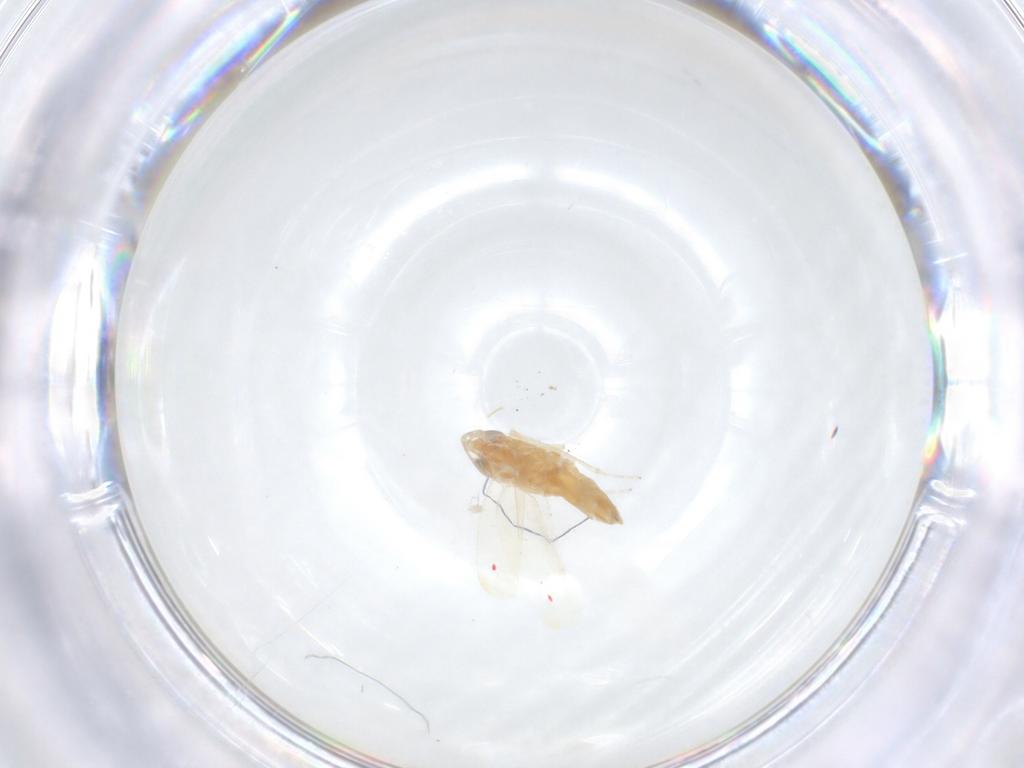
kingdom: Animalia
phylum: Arthropoda
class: Insecta
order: Hemiptera
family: Cicadellidae
